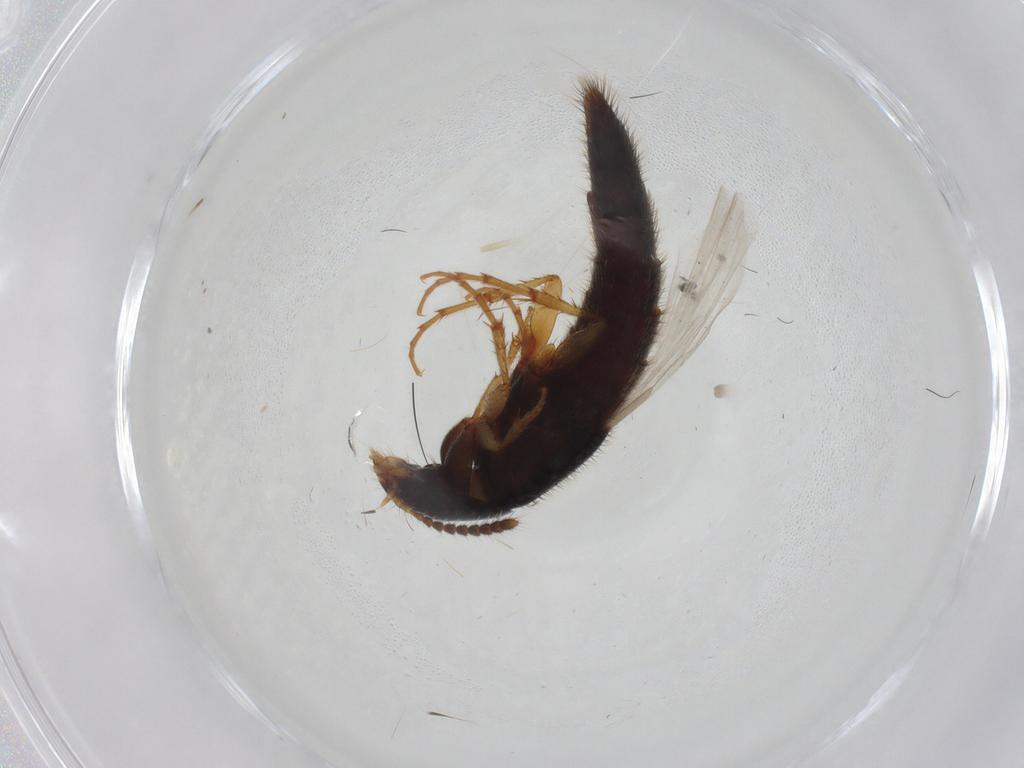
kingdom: Animalia
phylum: Arthropoda
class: Insecta
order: Coleoptera
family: Staphylinidae
